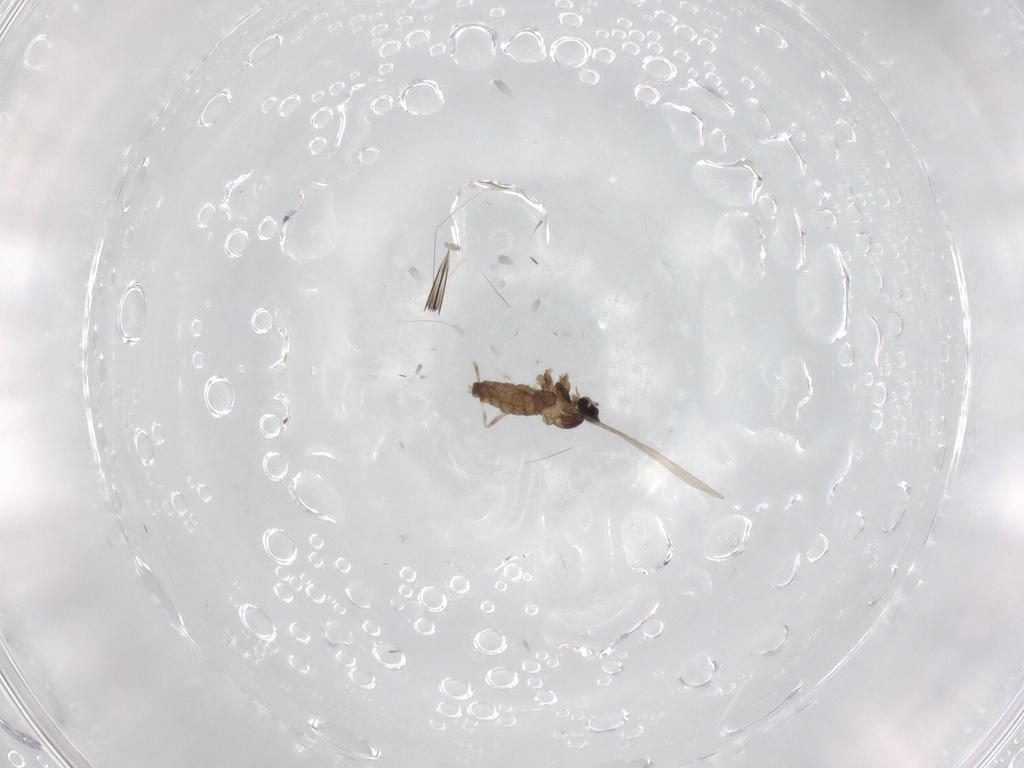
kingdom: Animalia
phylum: Arthropoda
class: Insecta
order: Diptera
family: Cecidomyiidae
